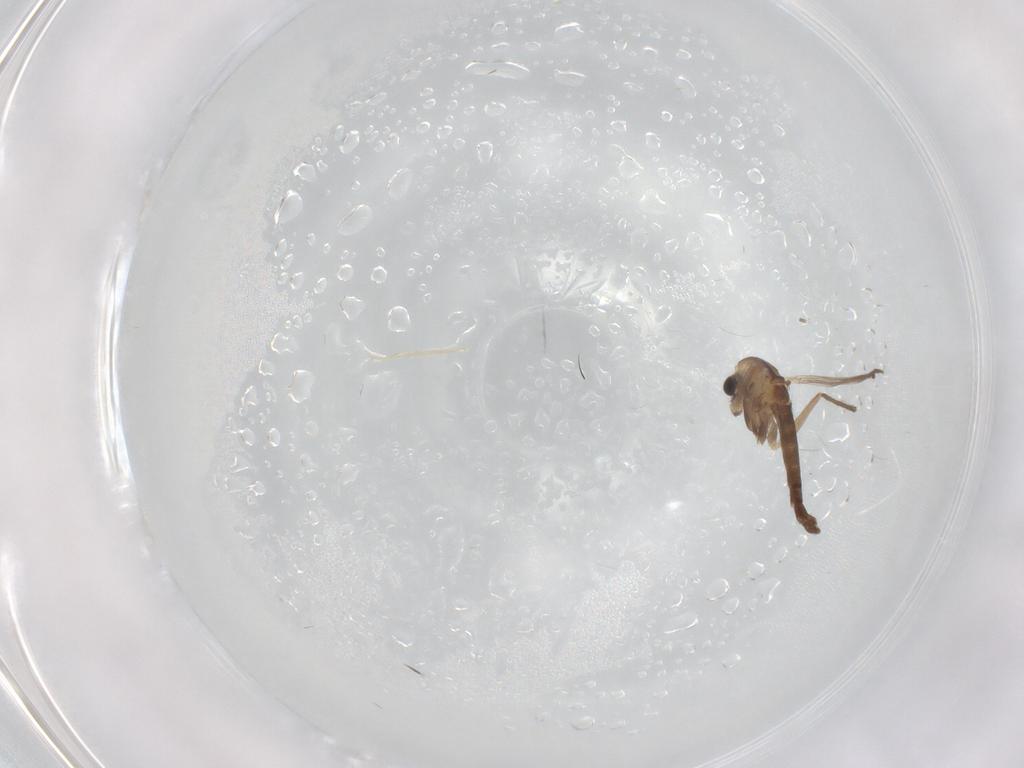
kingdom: Animalia
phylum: Arthropoda
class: Insecta
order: Diptera
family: Chironomidae
